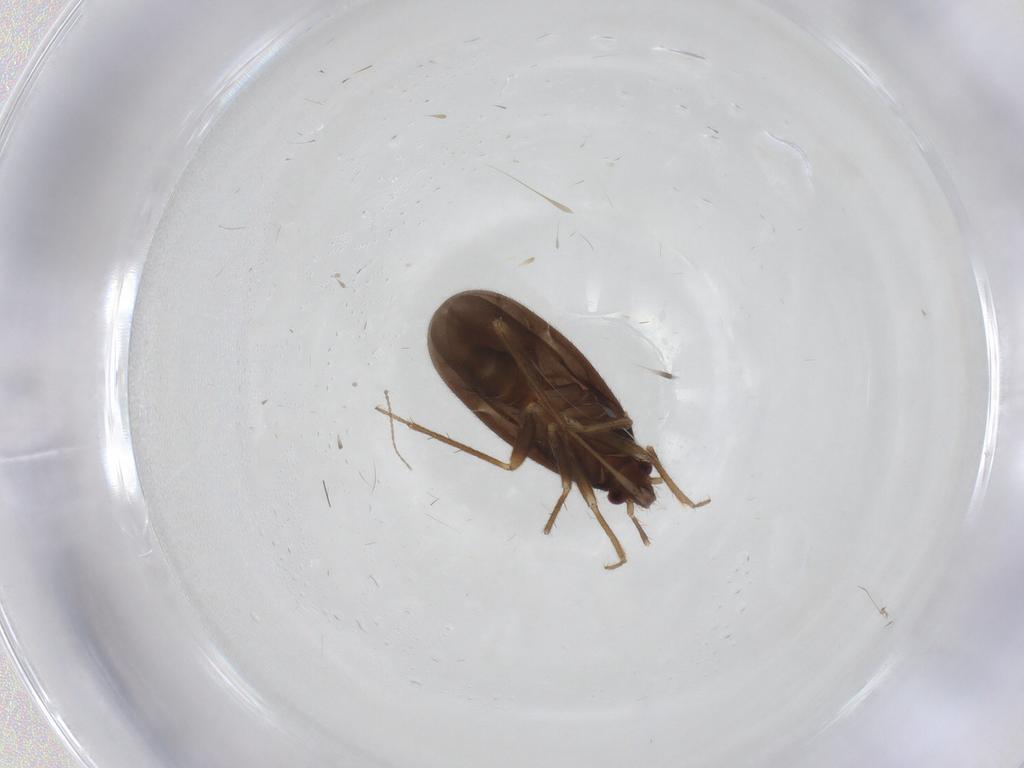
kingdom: Animalia
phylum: Arthropoda
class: Insecta
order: Hemiptera
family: Ceratocombidae
